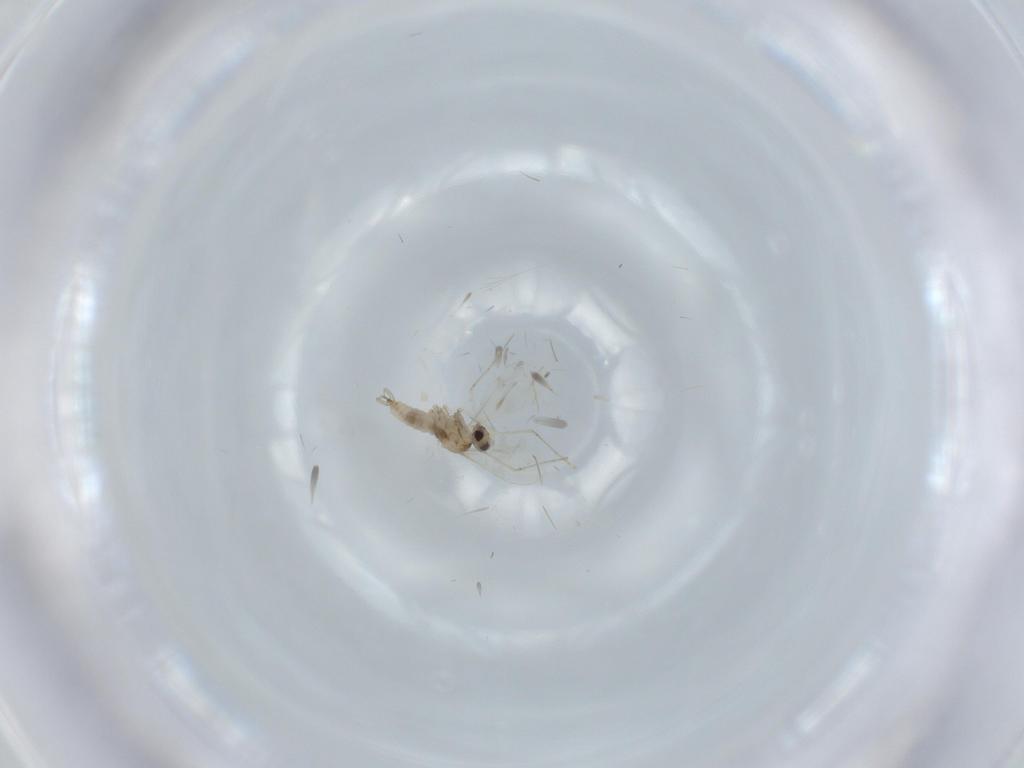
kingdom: Animalia
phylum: Arthropoda
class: Insecta
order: Diptera
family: Cecidomyiidae
